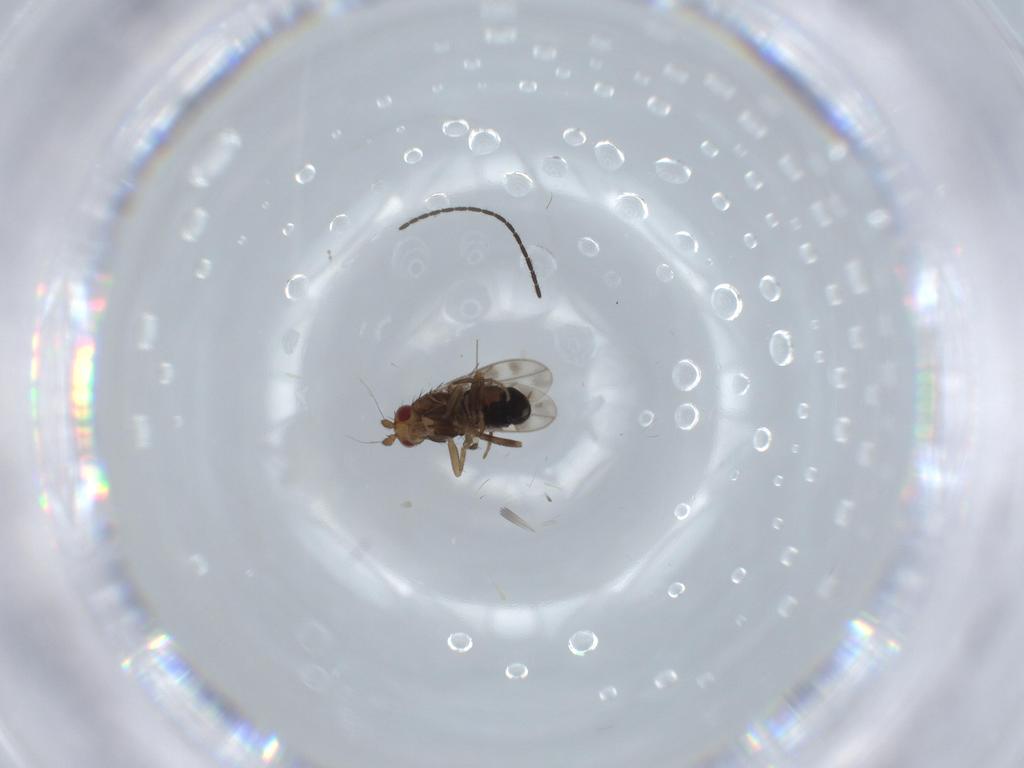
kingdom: Animalia
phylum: Arthropoda
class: Insecta
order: Diptera
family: Sphaeroceridae
